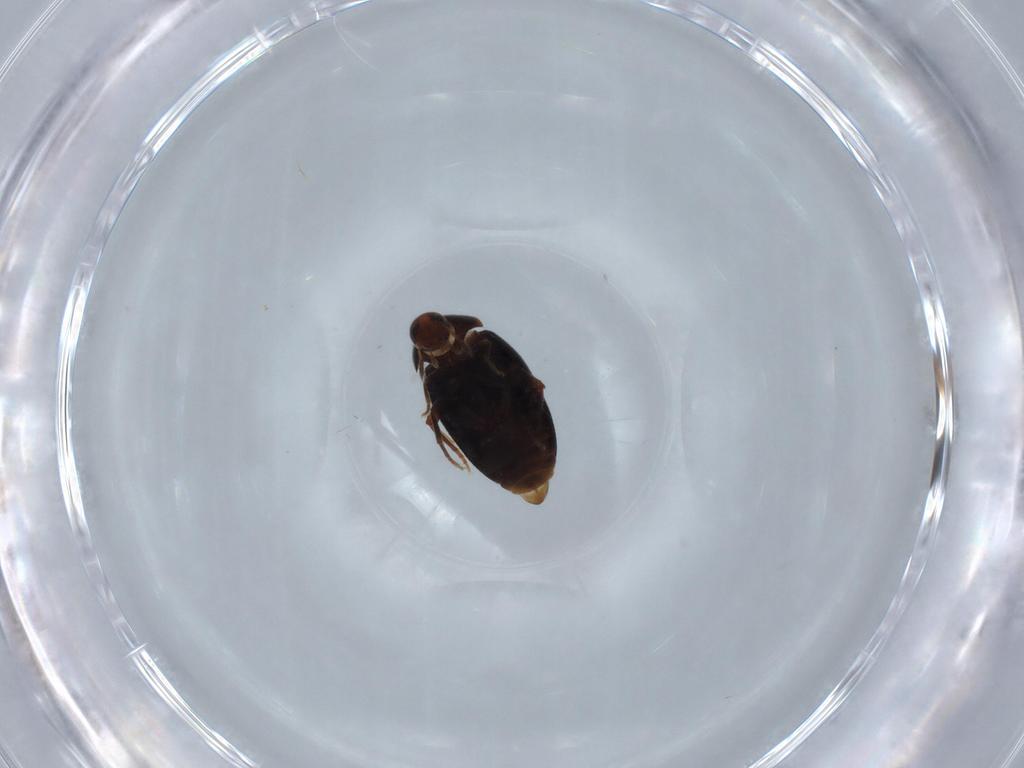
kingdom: Animalia
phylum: Arthropoda
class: Insecta
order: Coleoptera
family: Melandryidae
